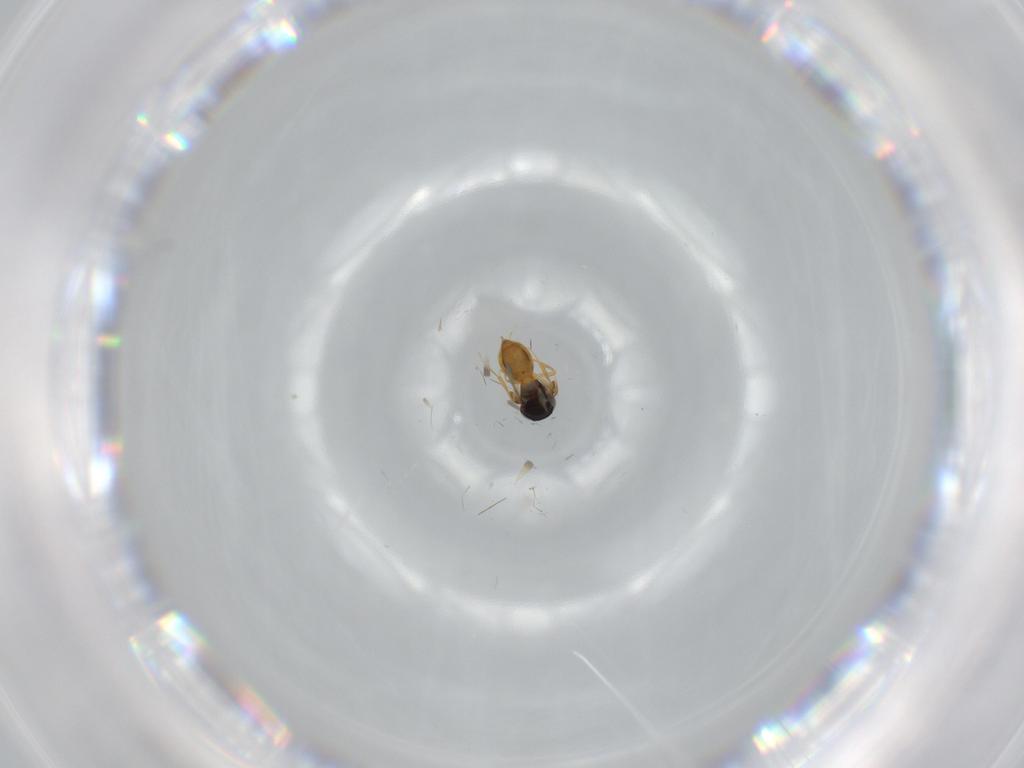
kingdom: Animalia
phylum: Arthropoda
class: Insecta
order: Hymenoptera
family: Scelionidae
